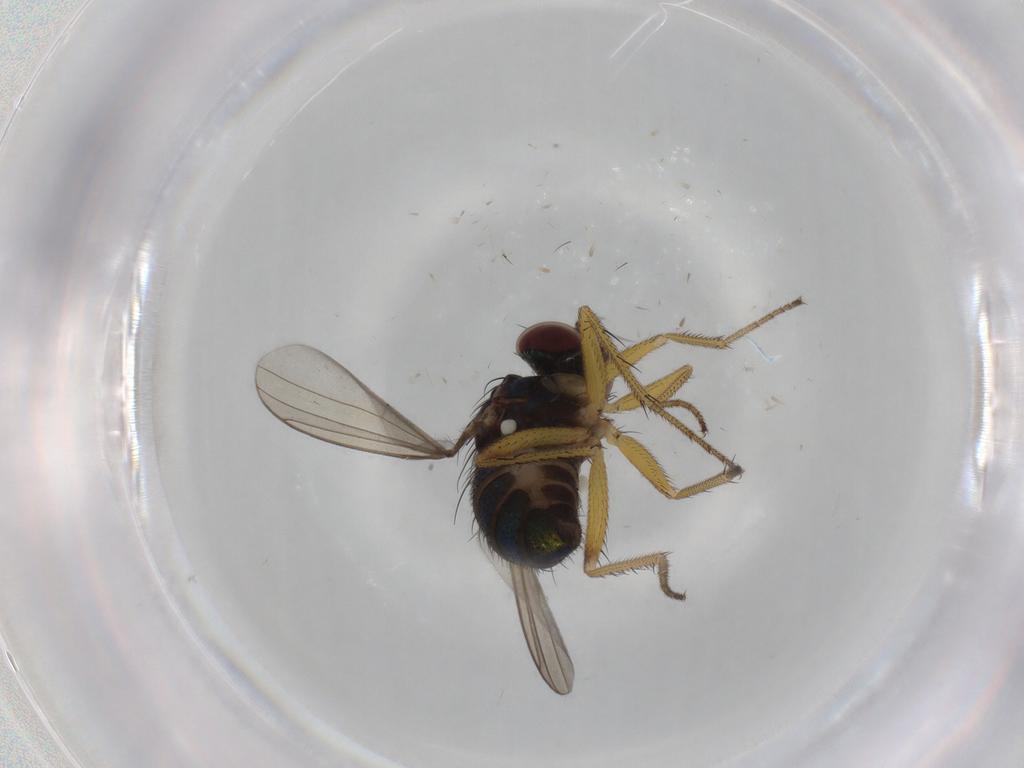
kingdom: Animalia
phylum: Arthropoda
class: Insecta
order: Diptera
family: Dolichopodidae
